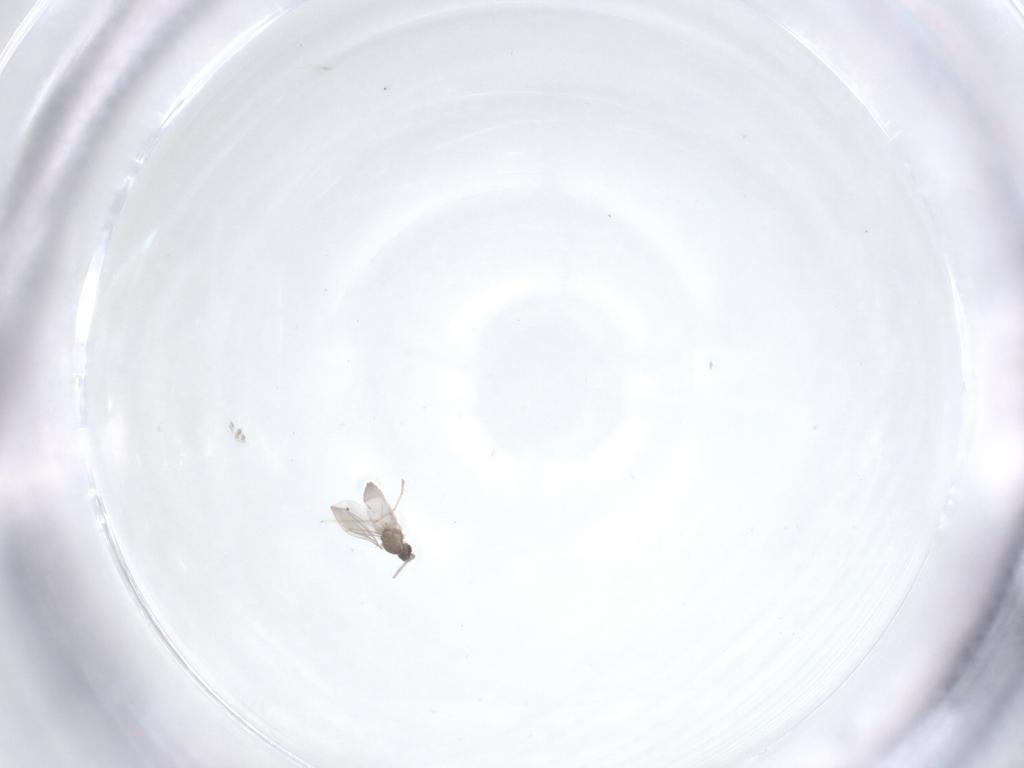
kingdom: Animalia
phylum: Arthropoda
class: Insecta
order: Diptera
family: Cecidomyiidae
